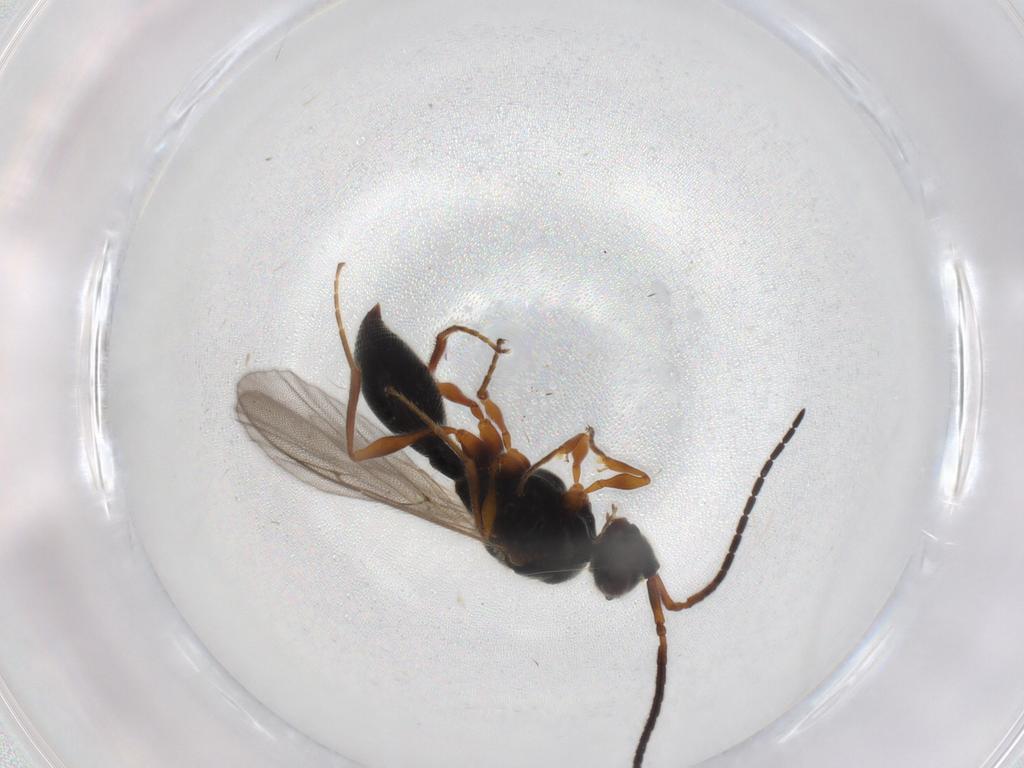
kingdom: Animalia
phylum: Arthropoda
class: Insecta
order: Hymenoptera
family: Diapriidae
